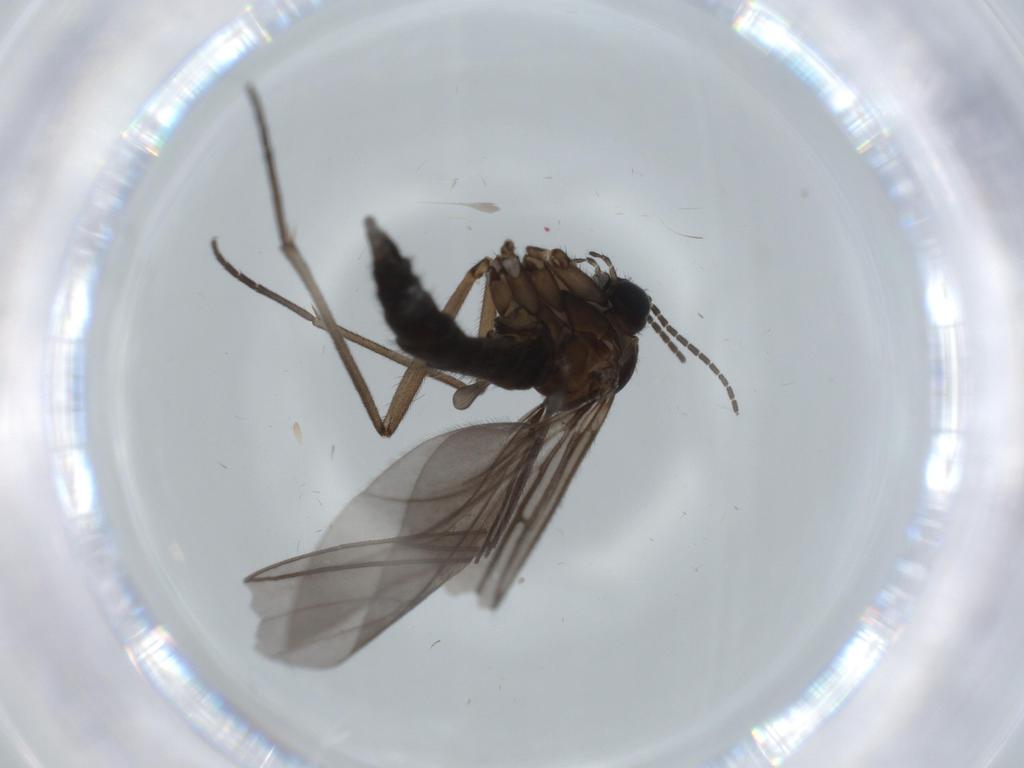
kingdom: Animalia
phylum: Arthropoda
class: Insecta
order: Diptera
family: Sciaridae
